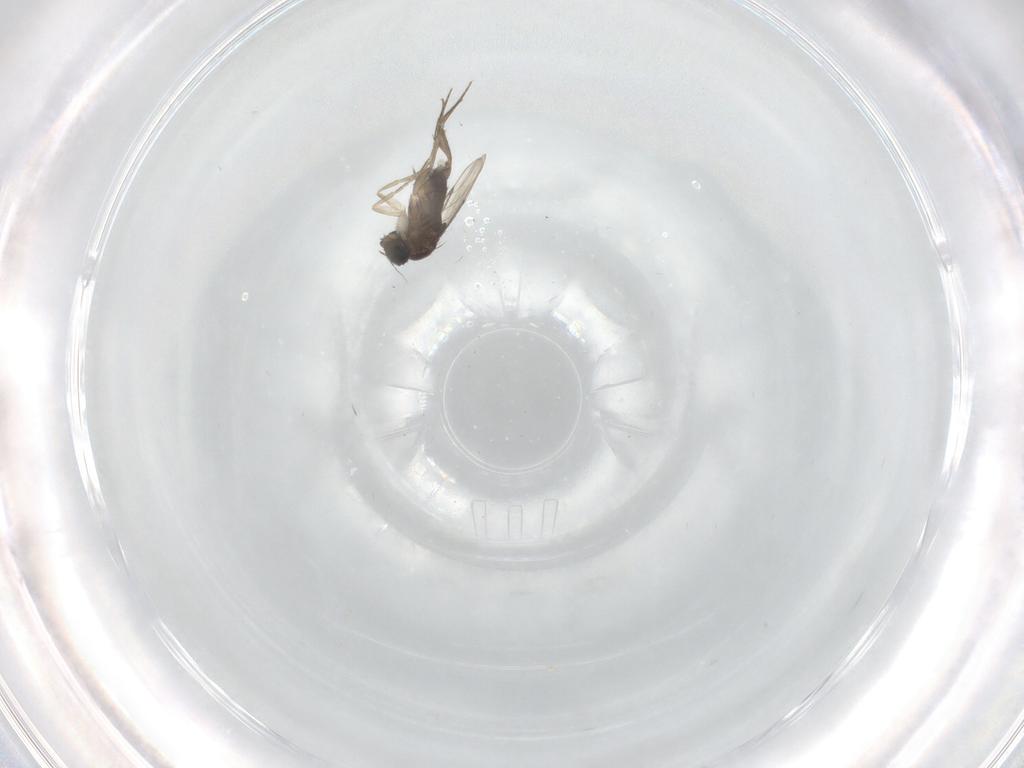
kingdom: Animalia
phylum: Arthropoda
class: Insecta
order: Diptera
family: Phoridae
